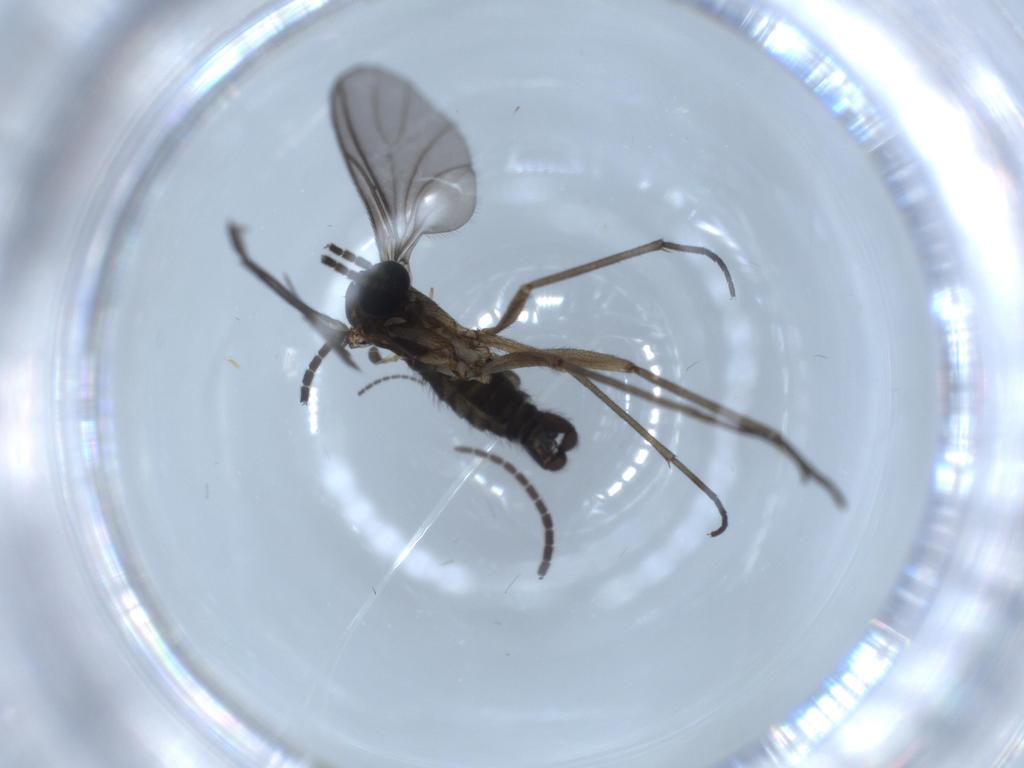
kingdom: Animalia
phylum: Arthropoda
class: Insecta
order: Diptera
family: Sciaridae
